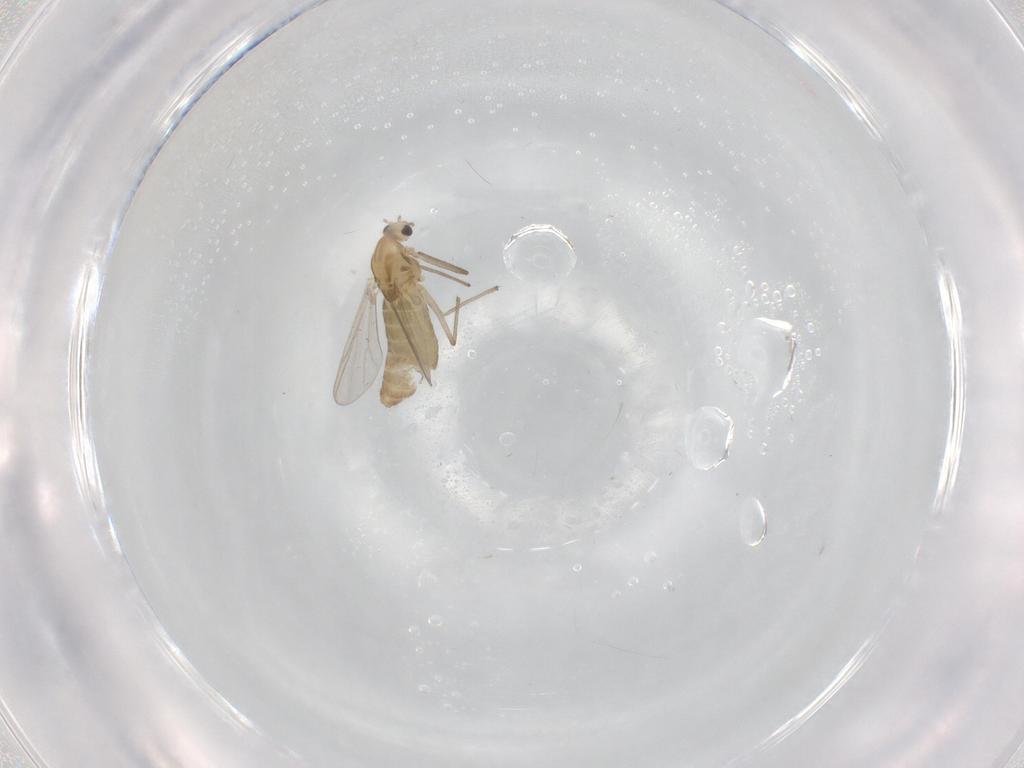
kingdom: Animalia
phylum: Arthropoda
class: Insecta
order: Diptera
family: Chironomidae
